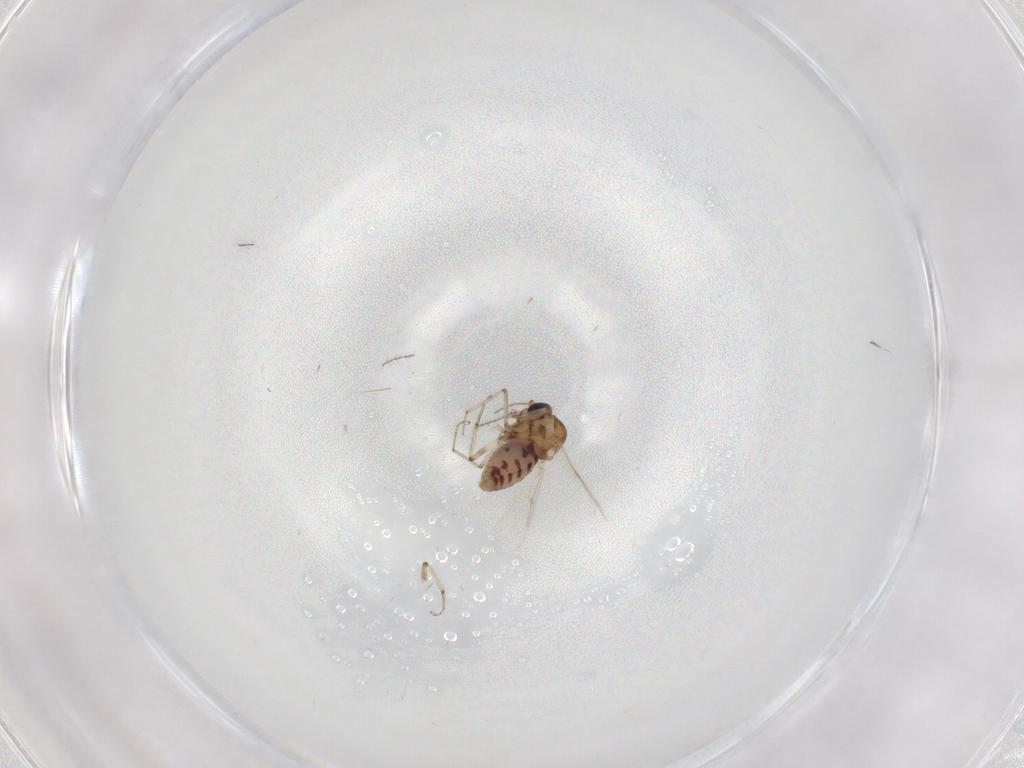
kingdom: Animalia
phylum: Arthropoda
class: Insecta
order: Diptera
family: Ceratopogonidae
